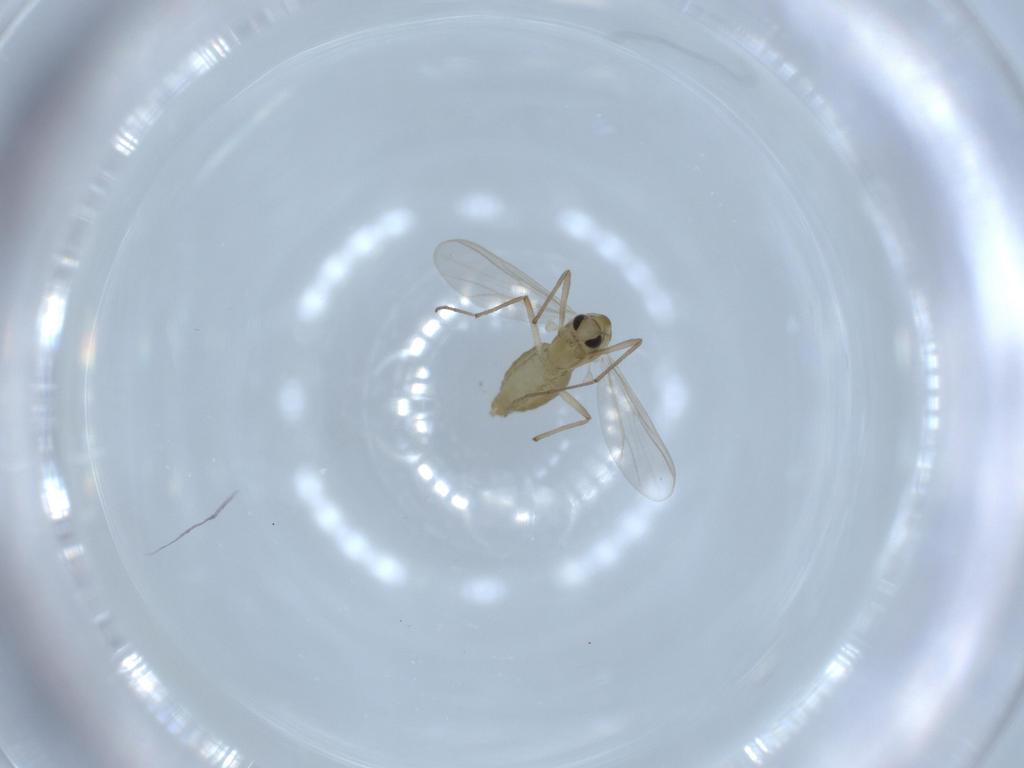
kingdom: Animalia
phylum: Arthropoda
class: Insecta
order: Diptera
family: Chironomidae
